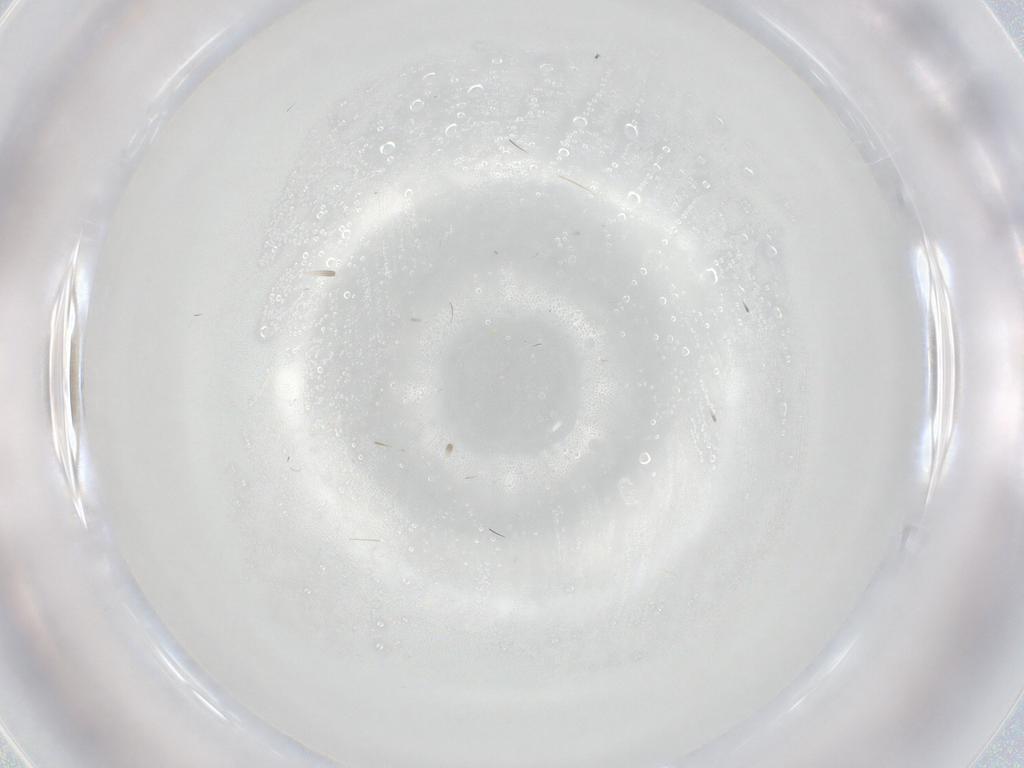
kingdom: Animalia
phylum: Arthropoda
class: Insecta
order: Diptera
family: Cecidomyiidae
